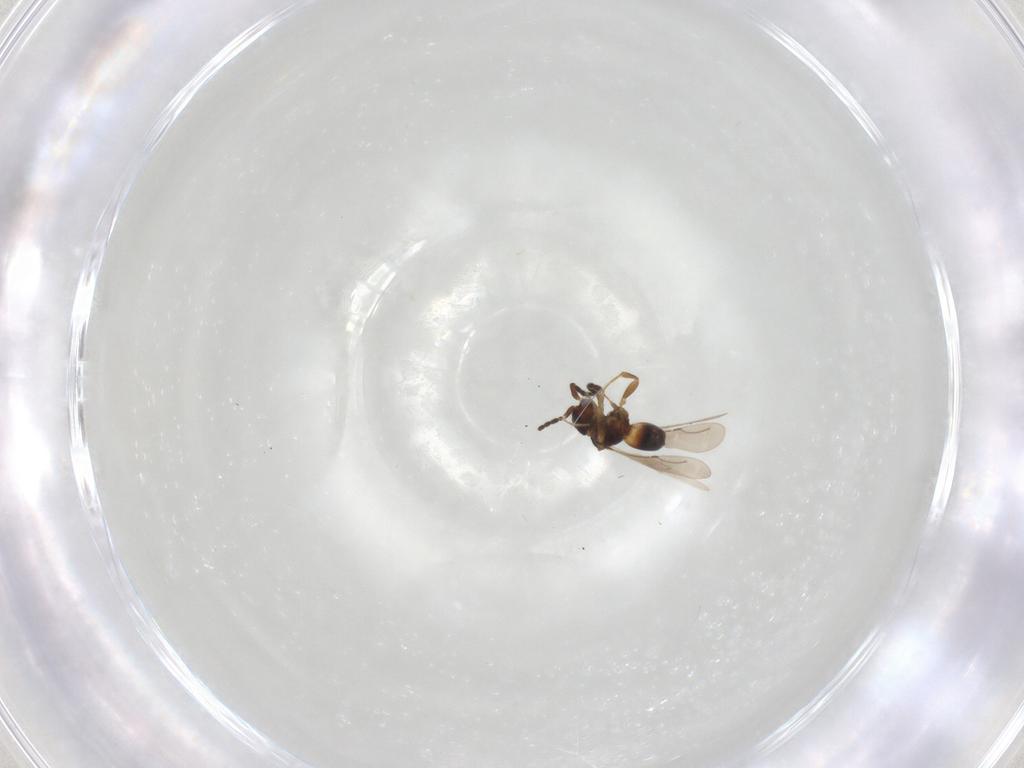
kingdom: Animalia
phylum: Arthropoda
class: Insecta
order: Hymenoptera
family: Ceraphronidae
